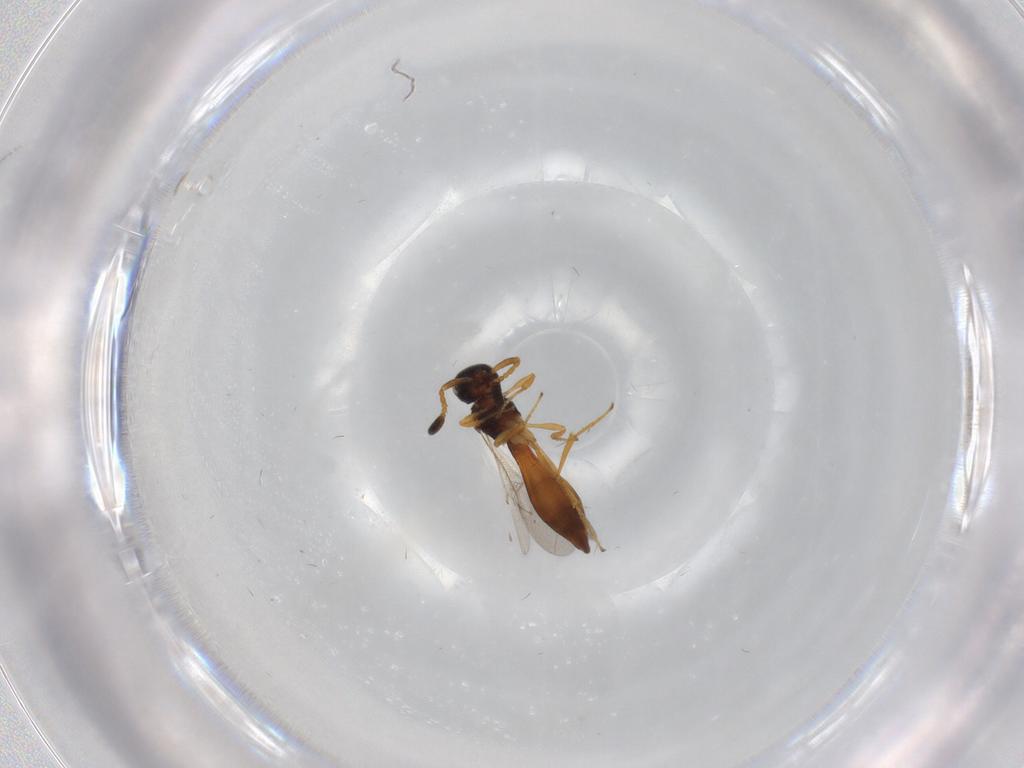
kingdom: Animalia
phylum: Arthropoda
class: Insecta
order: Hymenoptera
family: Scelionidae
